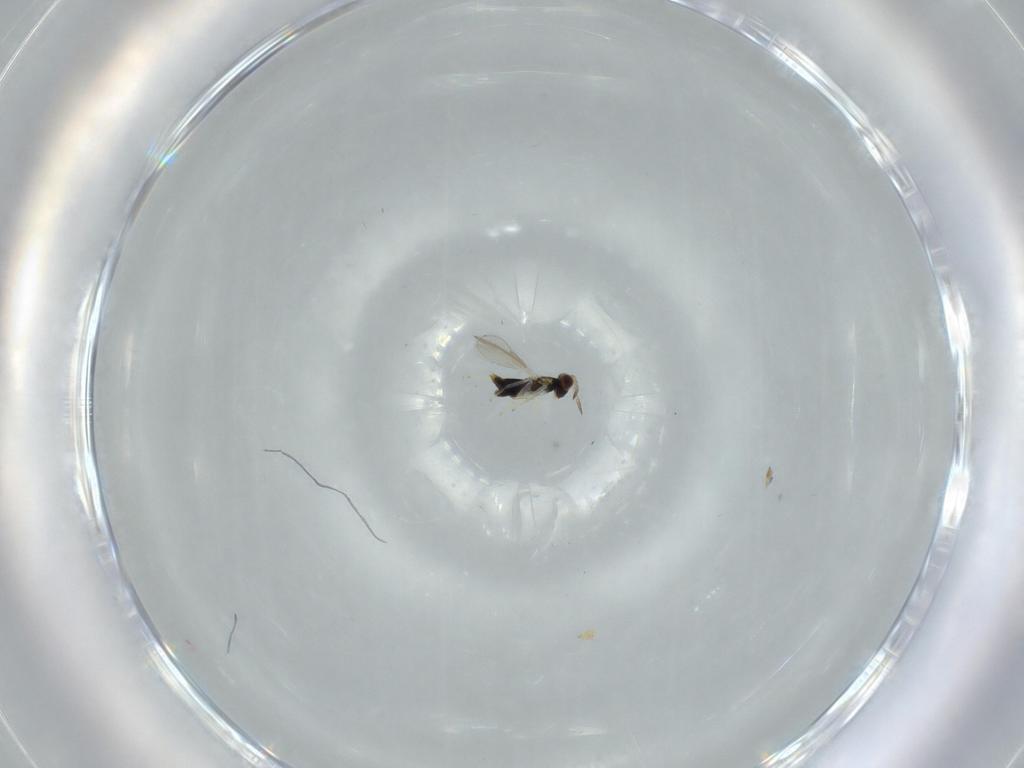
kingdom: Animalia
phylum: Arthropoda
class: Insecta
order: Hymenoptera
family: Aphelinidae
